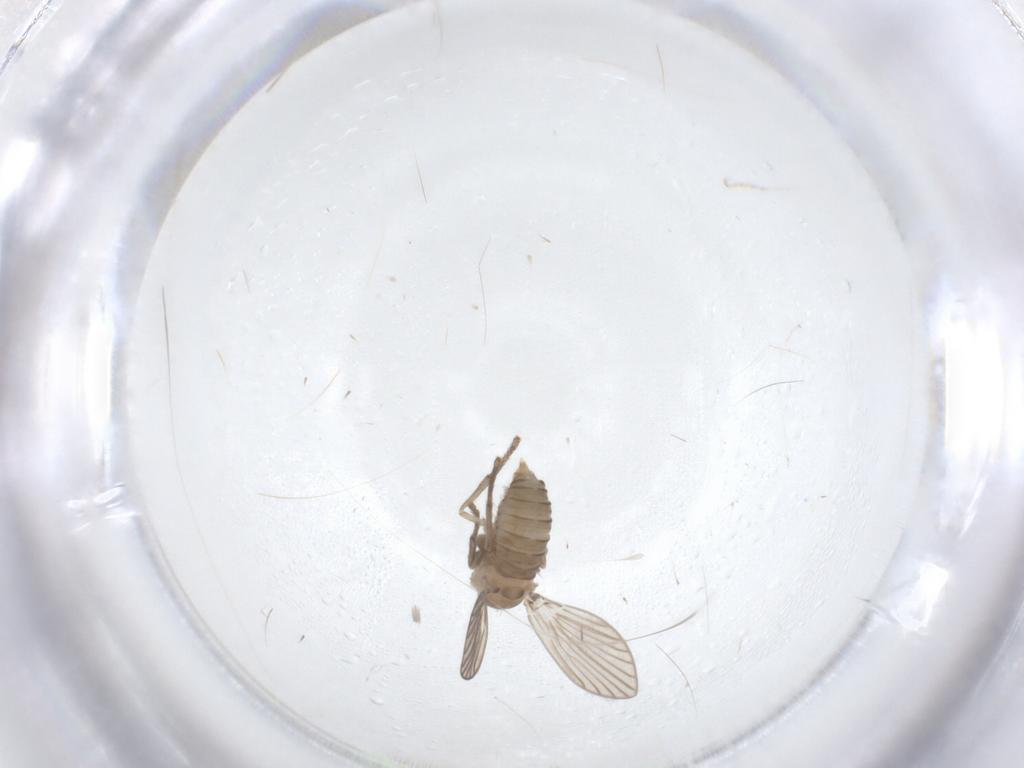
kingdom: Animalia
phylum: Arthropoda
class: Insecta
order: Diptera
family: Psychodidae
